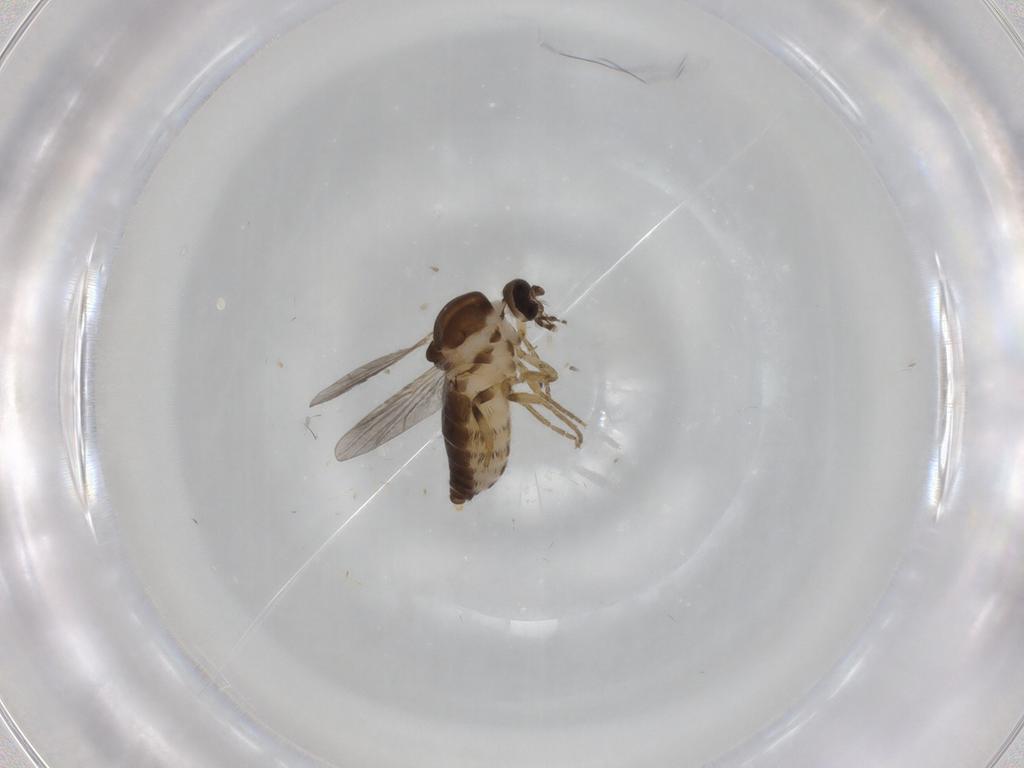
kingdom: Animalia
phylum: Arthropoda
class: Insecta
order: Diptera
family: Ceratopogonidae
